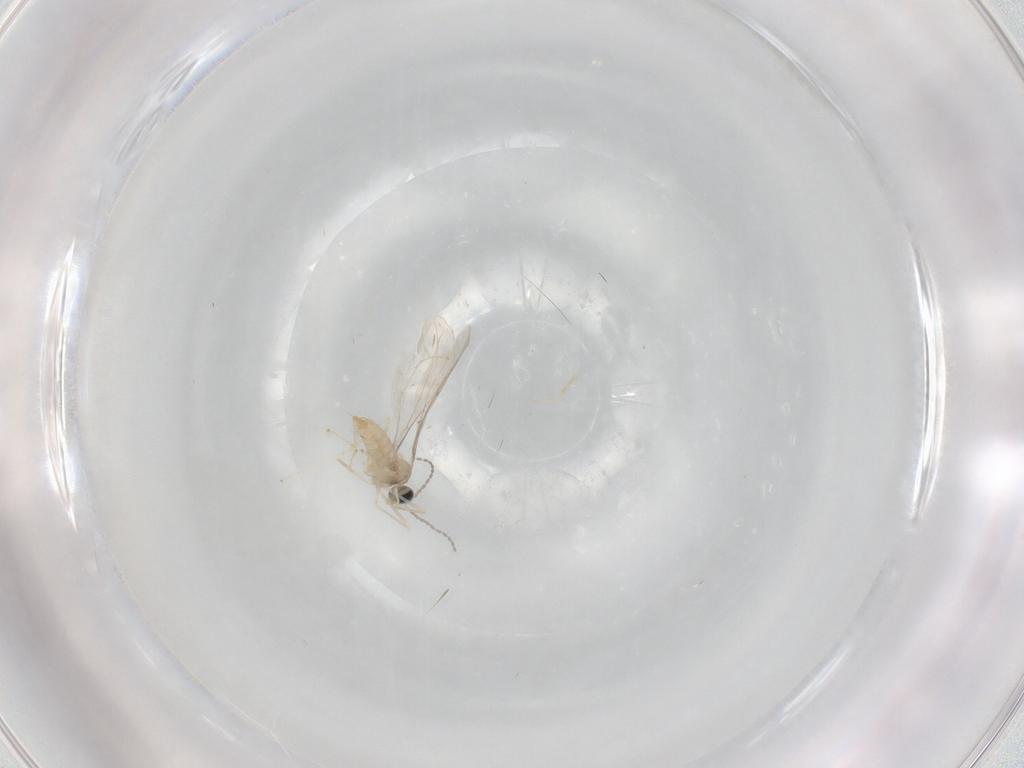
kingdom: Animalia
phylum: Arthropoda
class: Insecta
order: Diptera
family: Cecidomyiidae
